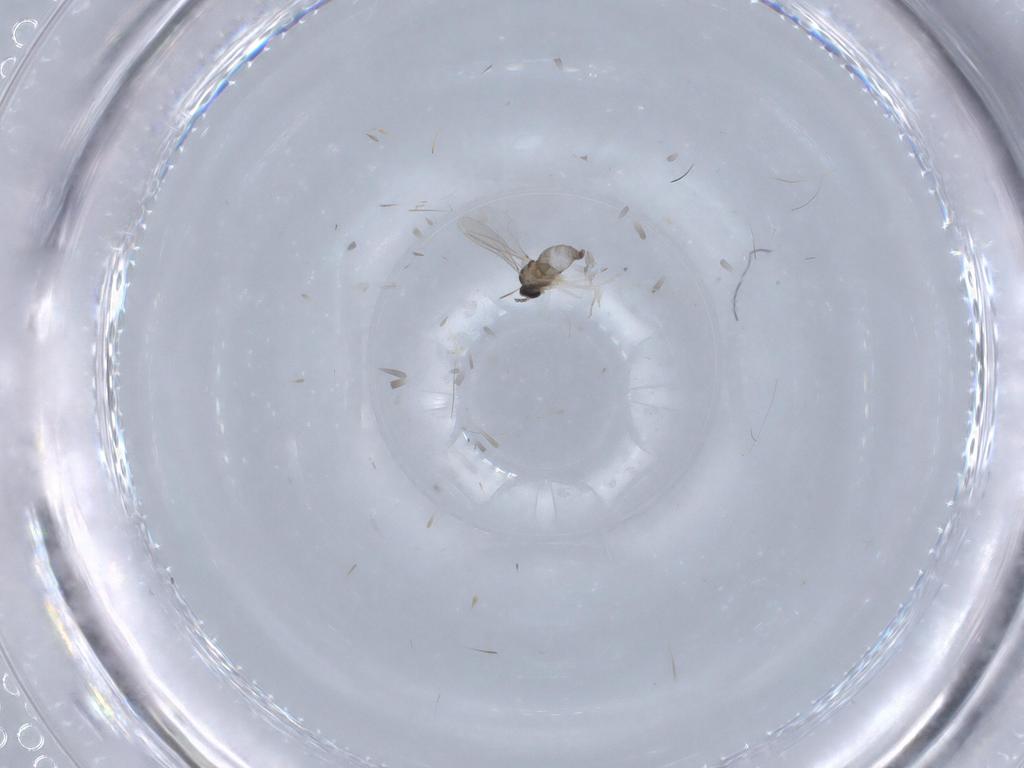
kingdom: Animalia
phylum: Arthropoda
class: Insecta
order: Diptera
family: Cecidomyiidae
